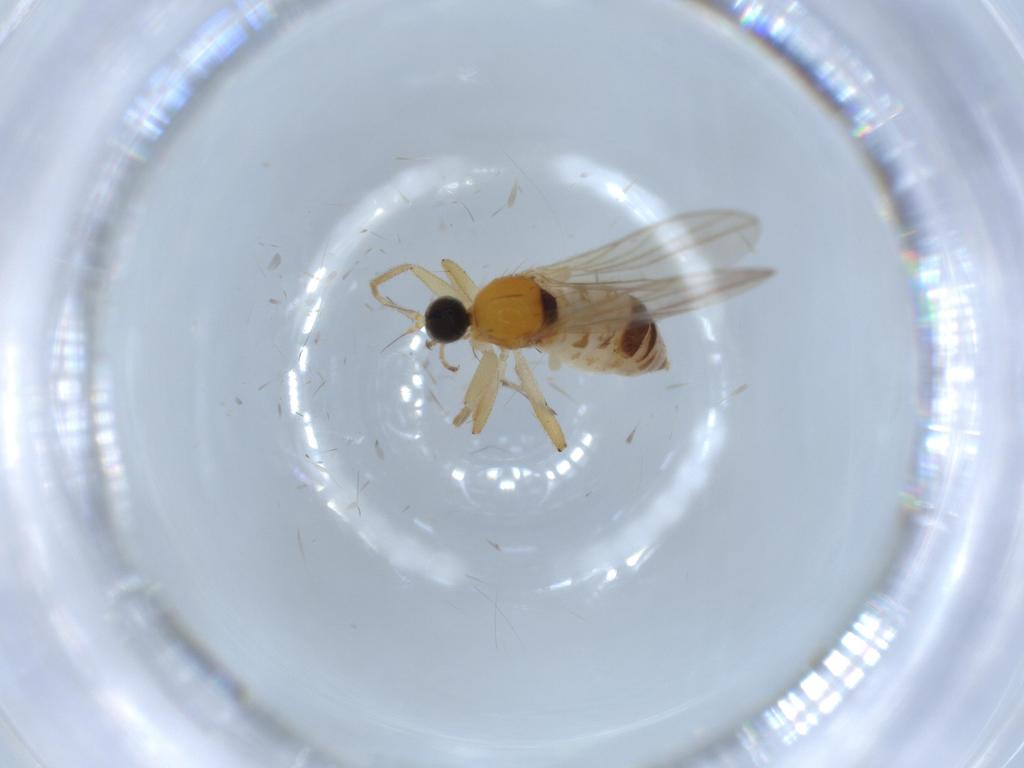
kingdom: Animalia
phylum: Arthropoda
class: Insecta
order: Diptera
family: Hybotidae
